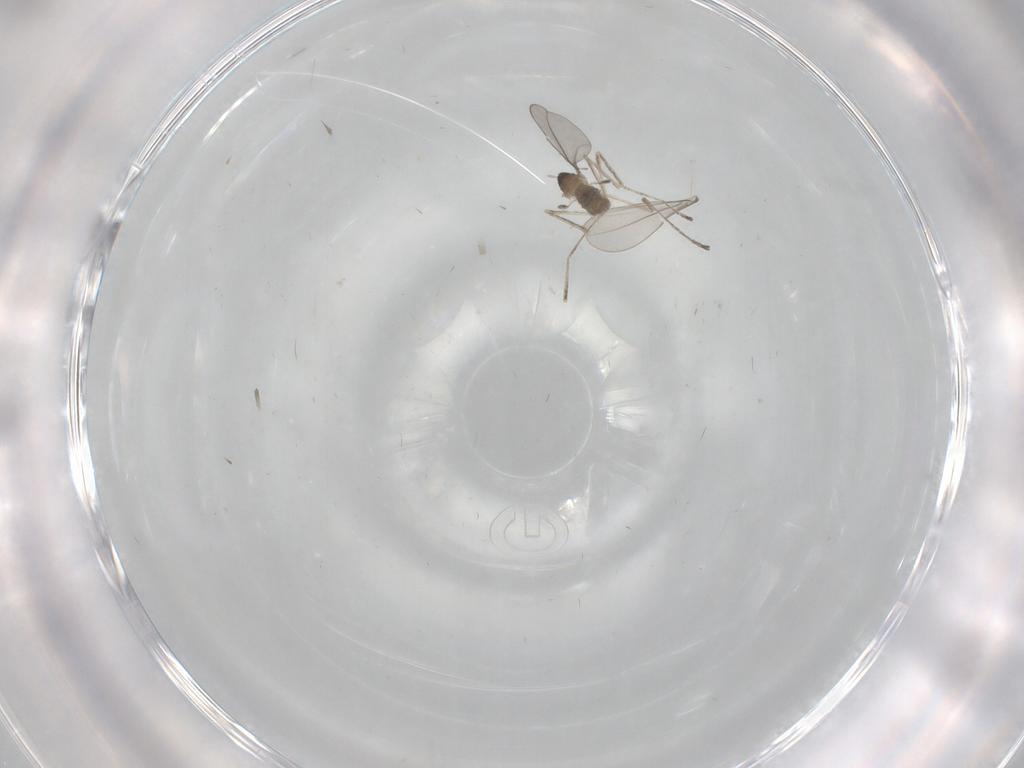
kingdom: Animalia
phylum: Arthropoda
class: Insecta
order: Diptera
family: Cecidomyiidae
